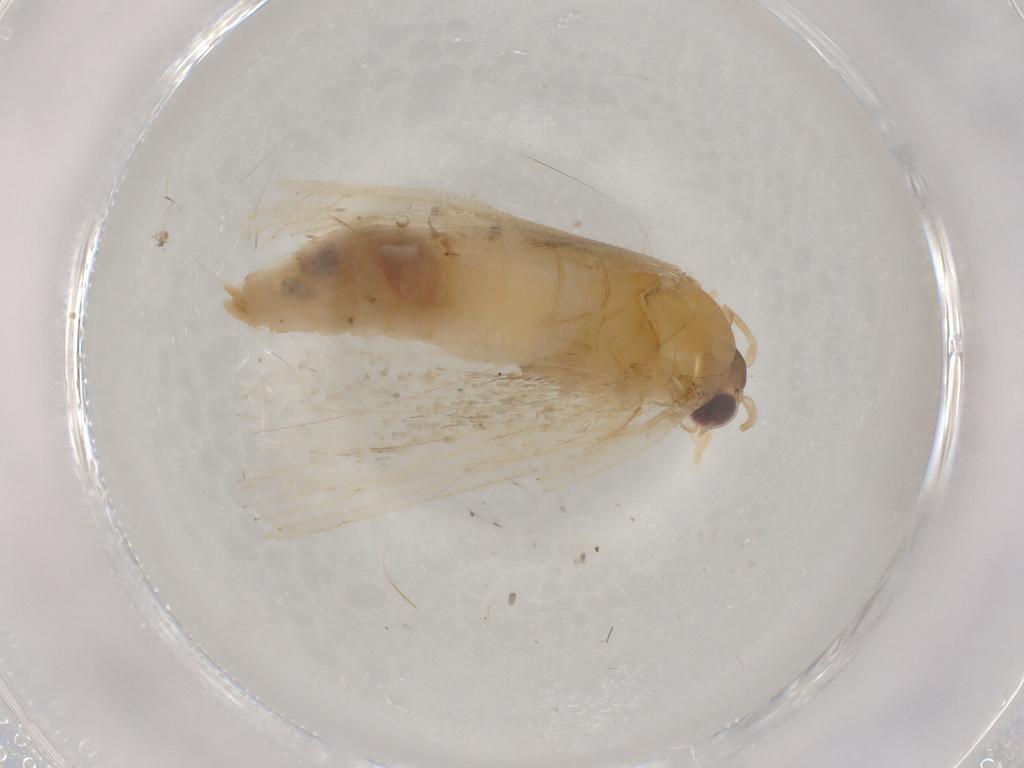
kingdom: Animalia
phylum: Arthropoda
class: Insecta
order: Lepidoptera
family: Tortricidae
